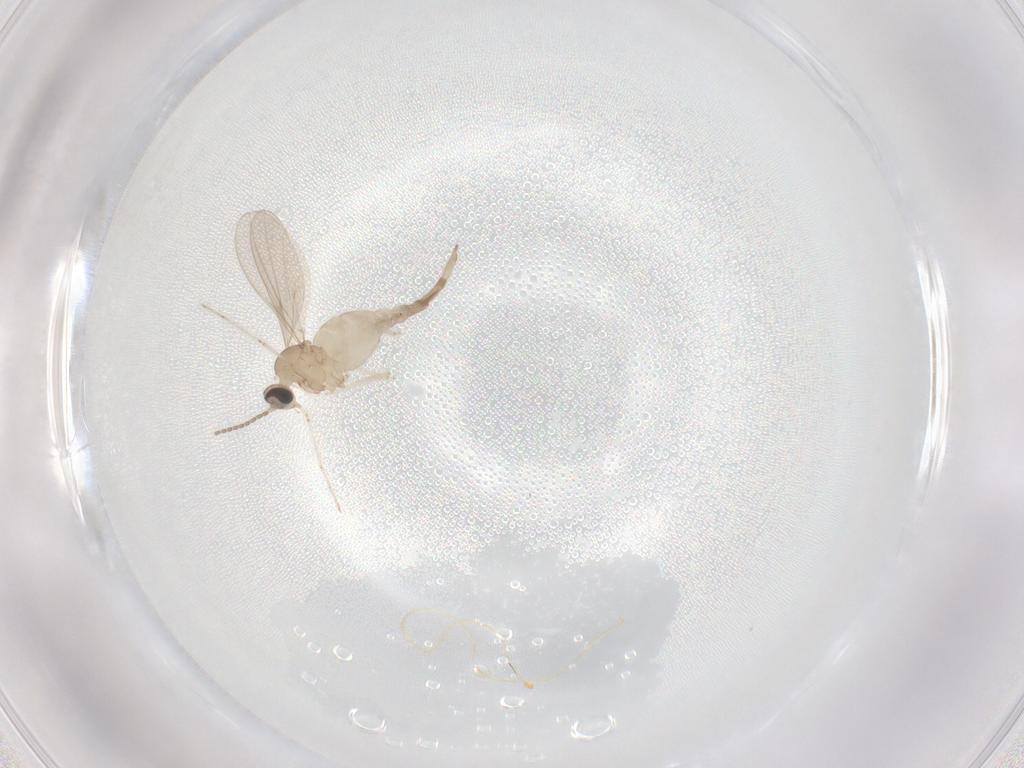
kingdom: Animalia
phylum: Arthropoda
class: Insecta
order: Diptera
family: Cecidomyiidae
